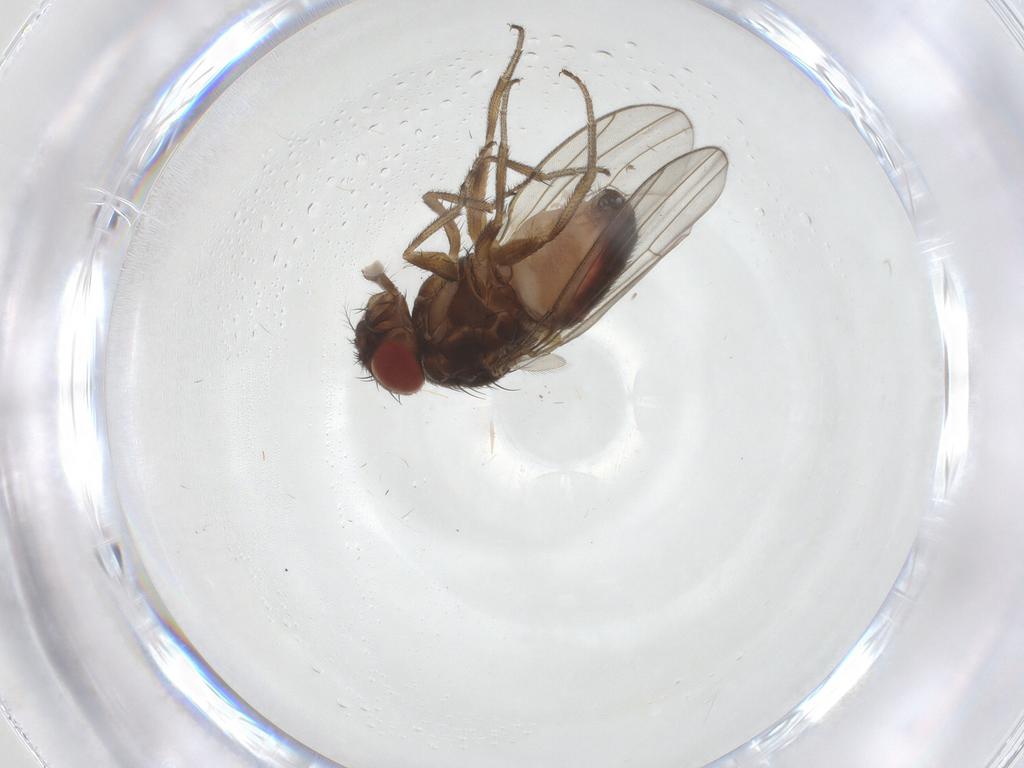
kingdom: Animalia
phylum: Arthropoda
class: Insecta
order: Diptera
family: Drosophilidae
